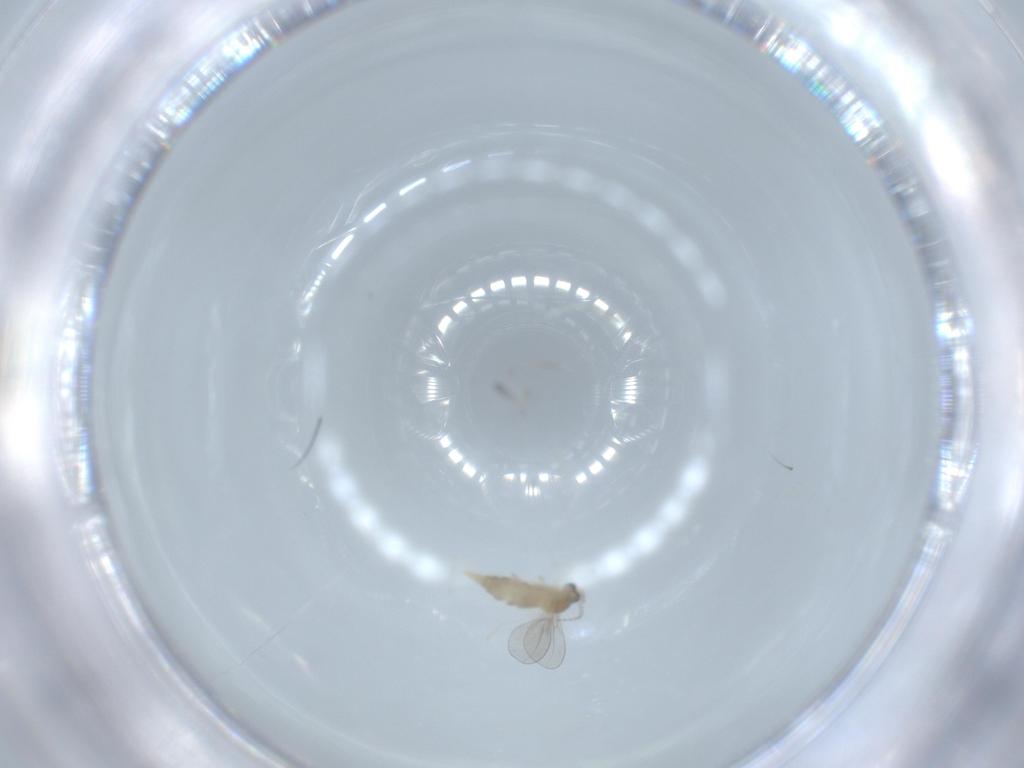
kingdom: Animalia
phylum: Arthropoda
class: Insecta
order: Diptera
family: Cecidomyiidae
